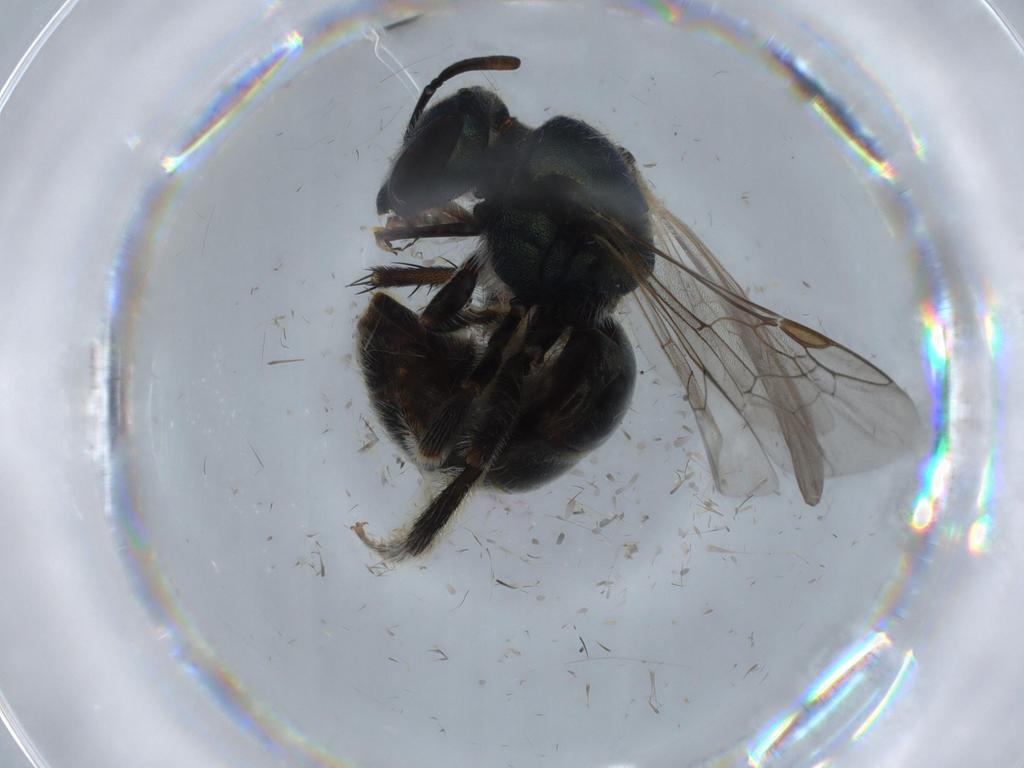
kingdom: Animalia
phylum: Arthropoda
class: Insecta
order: Hymenoptera
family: Halictidae
